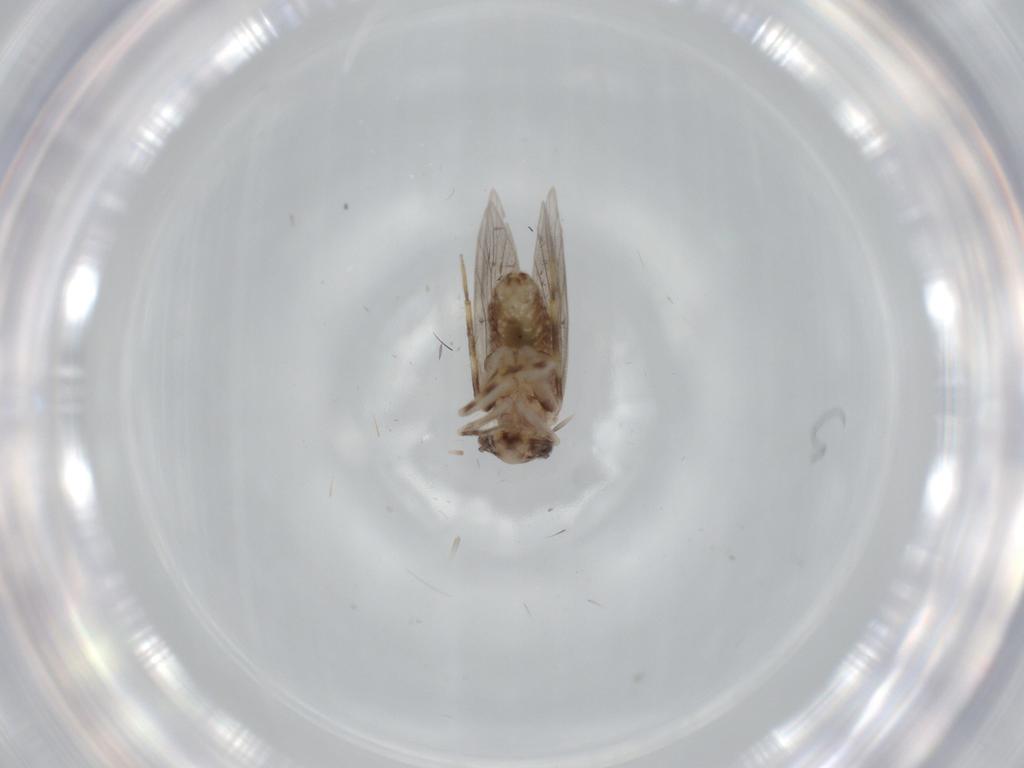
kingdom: Animalia
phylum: Arthropoda
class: Insecta
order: Psocodea
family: Lepidopsocidae
